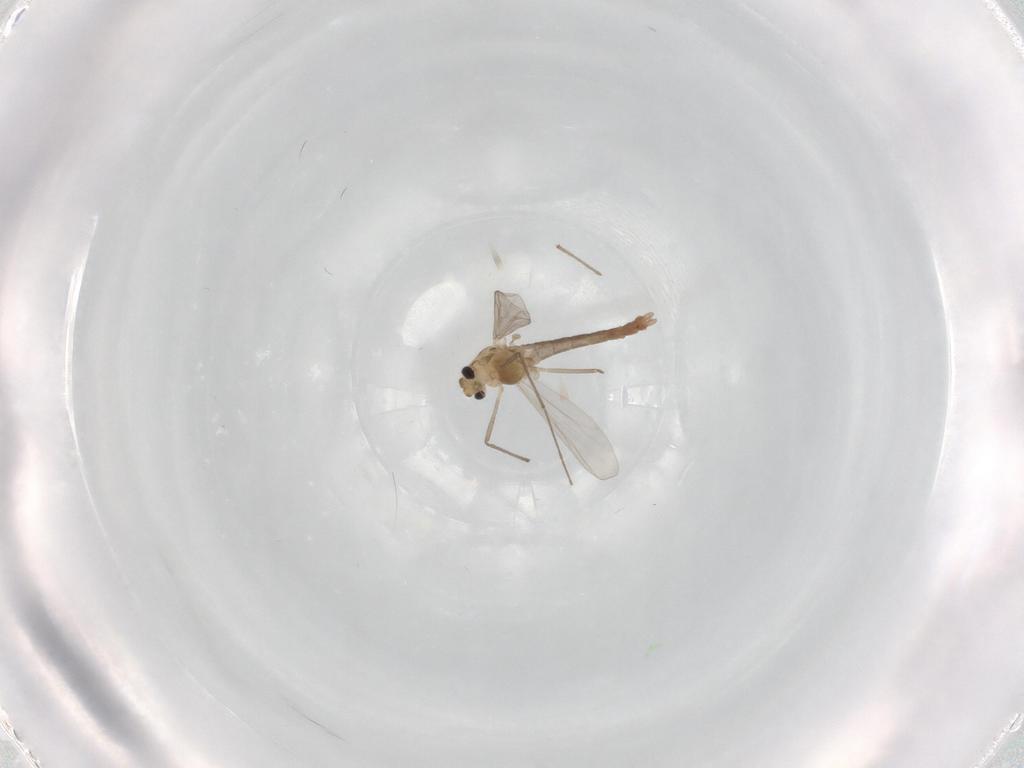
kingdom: Animalia
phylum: Arthropoda
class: Insecta
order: Diptera
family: Chironomidae
